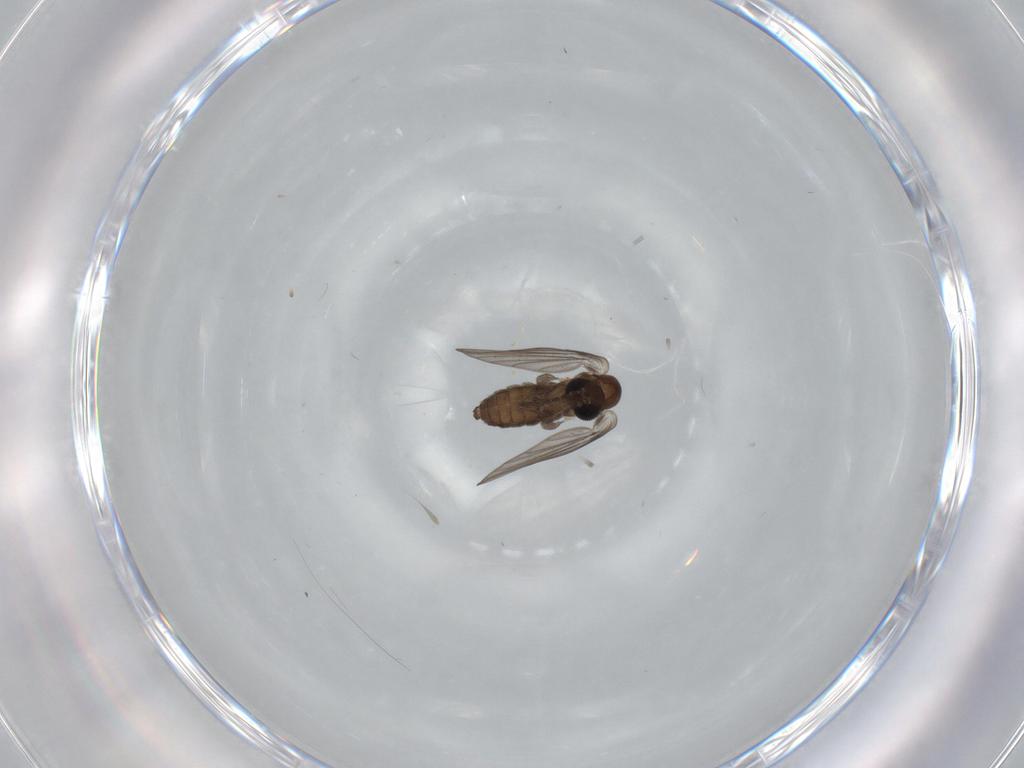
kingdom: Animalia
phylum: Arthropoda
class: Insecta
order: Diptera
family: Psychodidae
